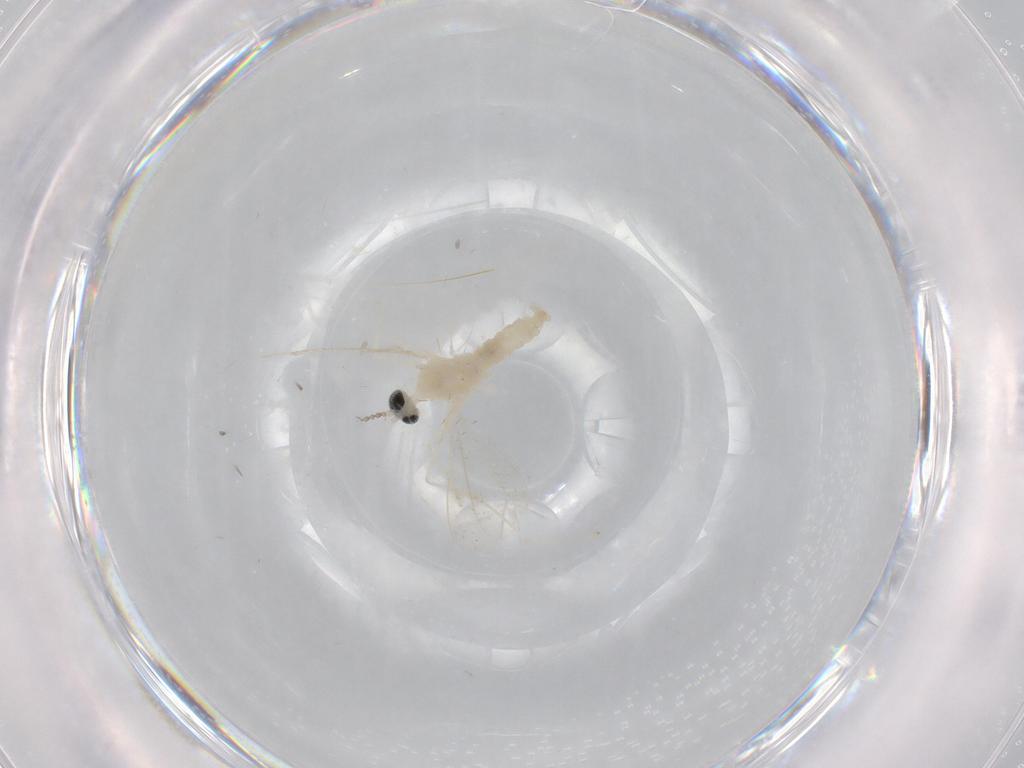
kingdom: Animalia
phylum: Arthropoda
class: Insecta
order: Diptera
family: Cecidomyiidae
